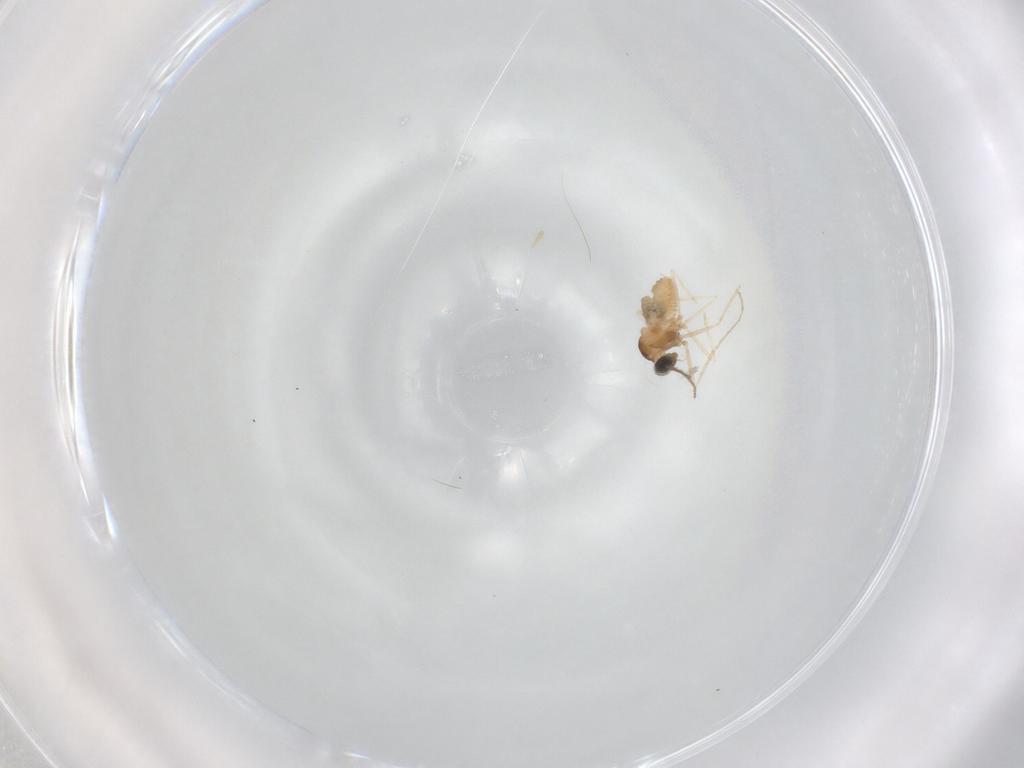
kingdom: Animalia
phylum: Arthropoda
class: Insecta
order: Diptera
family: Cecidomyiidae
